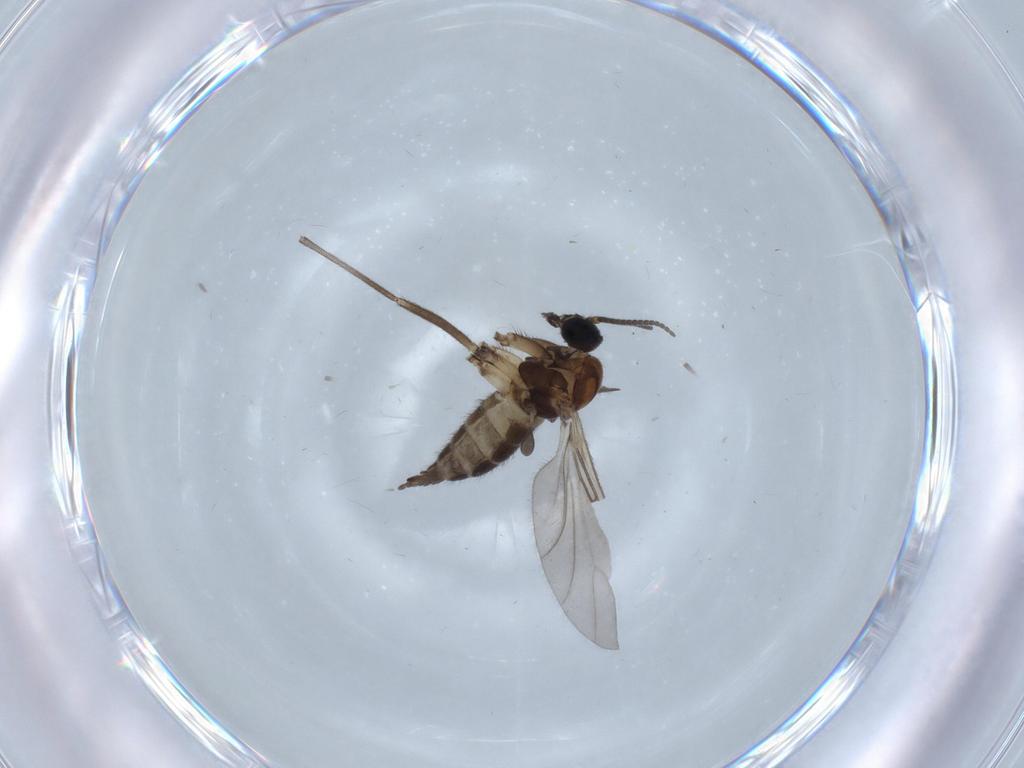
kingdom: Animalia
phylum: Arthropoda
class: Insecta
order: Diptera
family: Sciaridae
